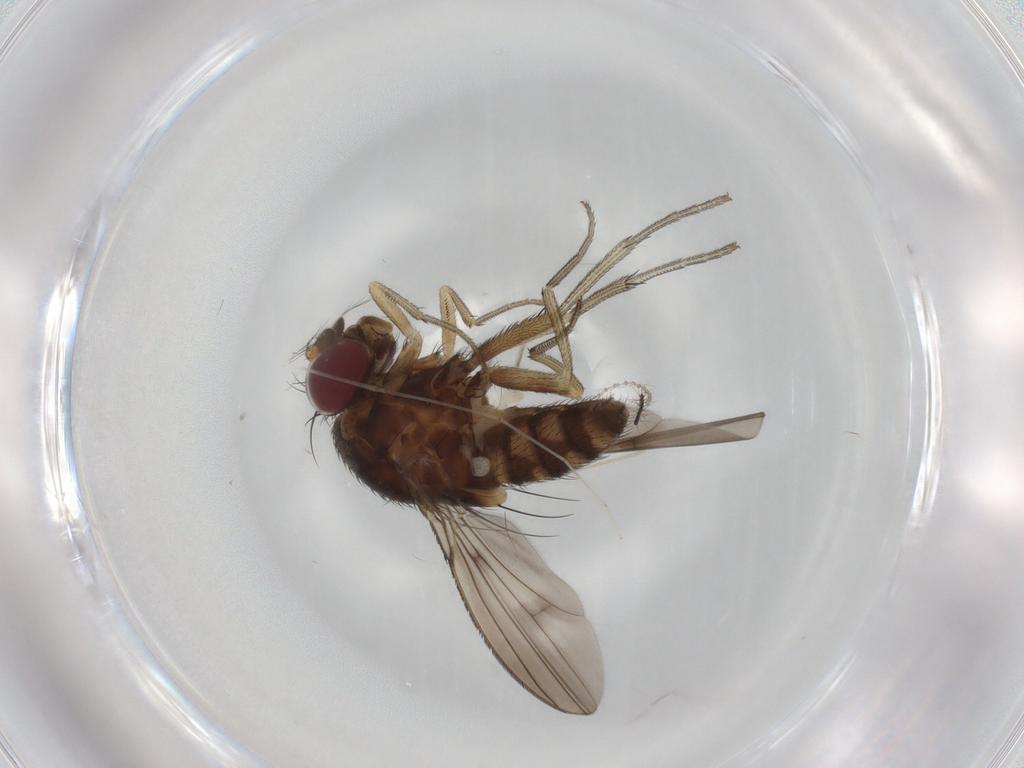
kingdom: Animalia
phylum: Arthropoda
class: Insecta
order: Diptera
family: Curtonotidae
